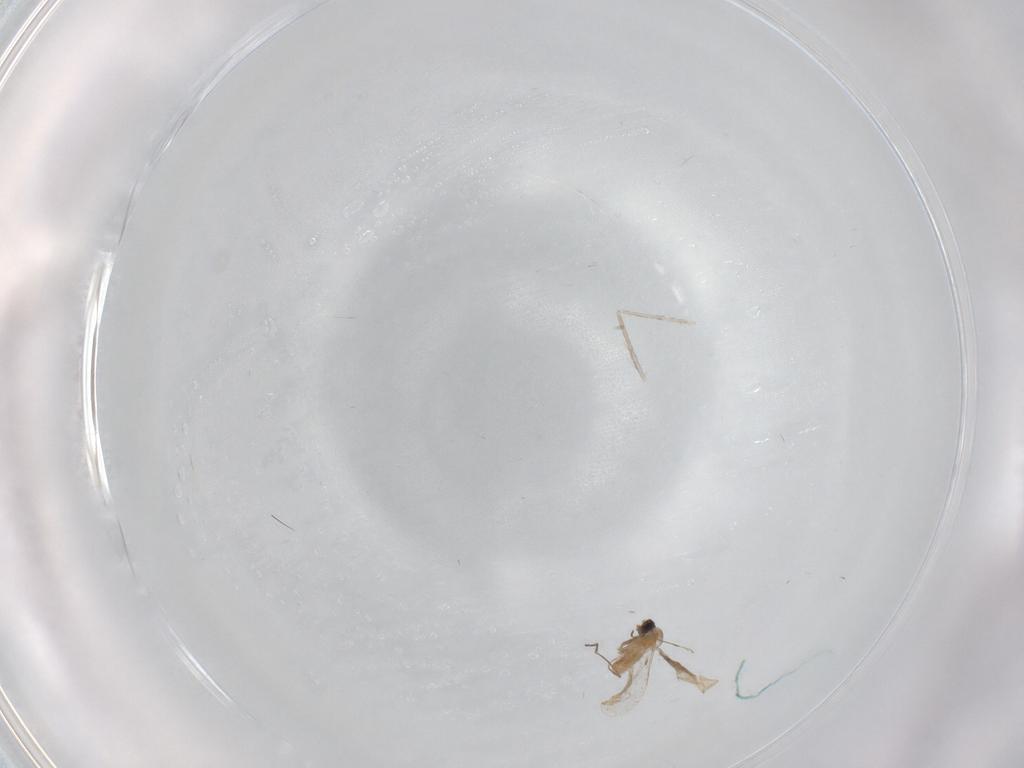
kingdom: Animalia
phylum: Arthropoda
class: Insecta
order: Diptera
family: Cecidomyiidae
